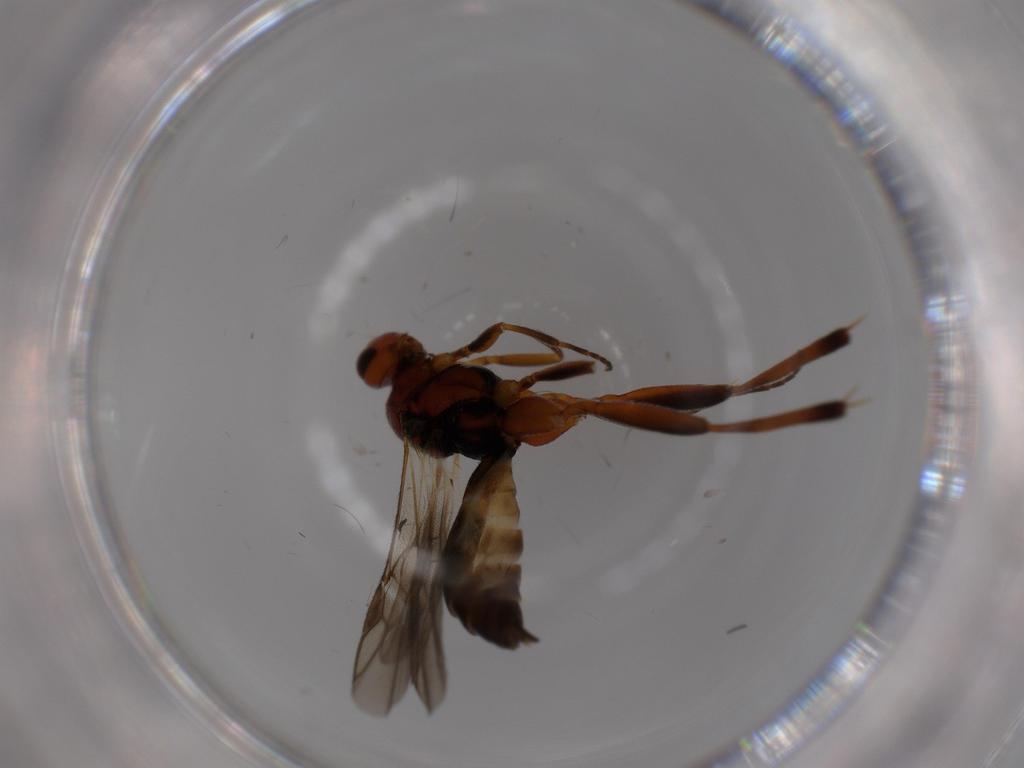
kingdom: Animalia
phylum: Arthropoda
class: Insecta
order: Hymenoptera
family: Braconidae
